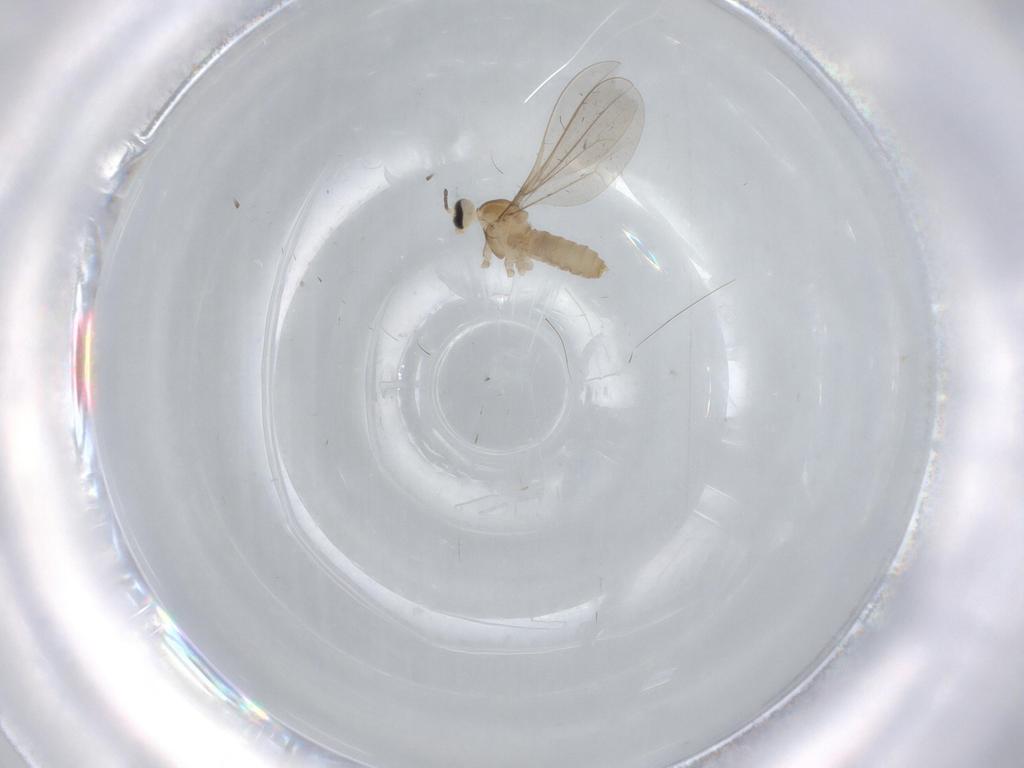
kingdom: Animalia
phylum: Arthropoda
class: Insecta
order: Diptera
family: Cecidomyiidae
